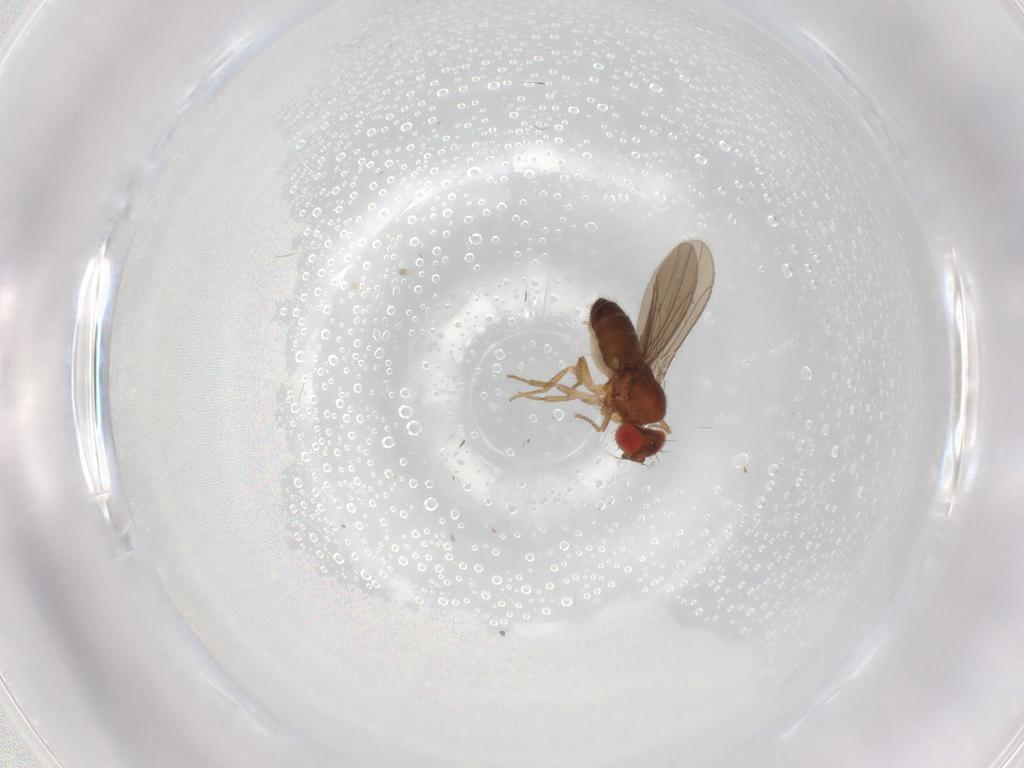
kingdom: Animalia
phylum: Arthropoda
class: Insecta
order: Diptera
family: Drosophilidae
